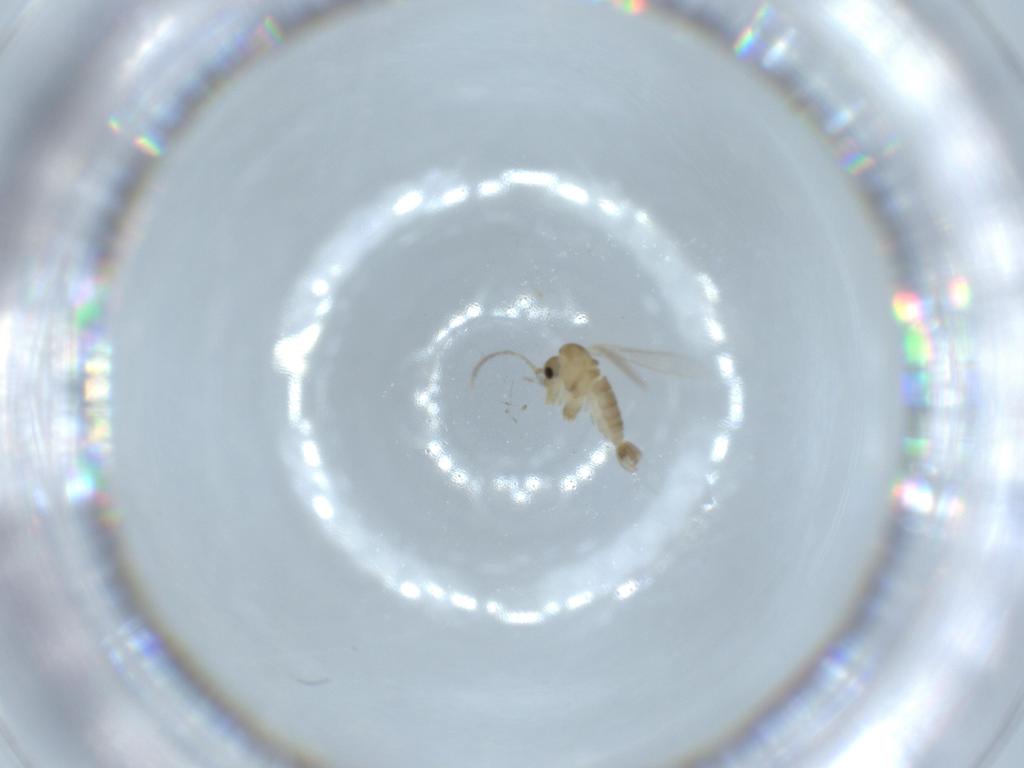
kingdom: Animalia
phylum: Arthropoda
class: Insecta
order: Diptera
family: Psychodidae
